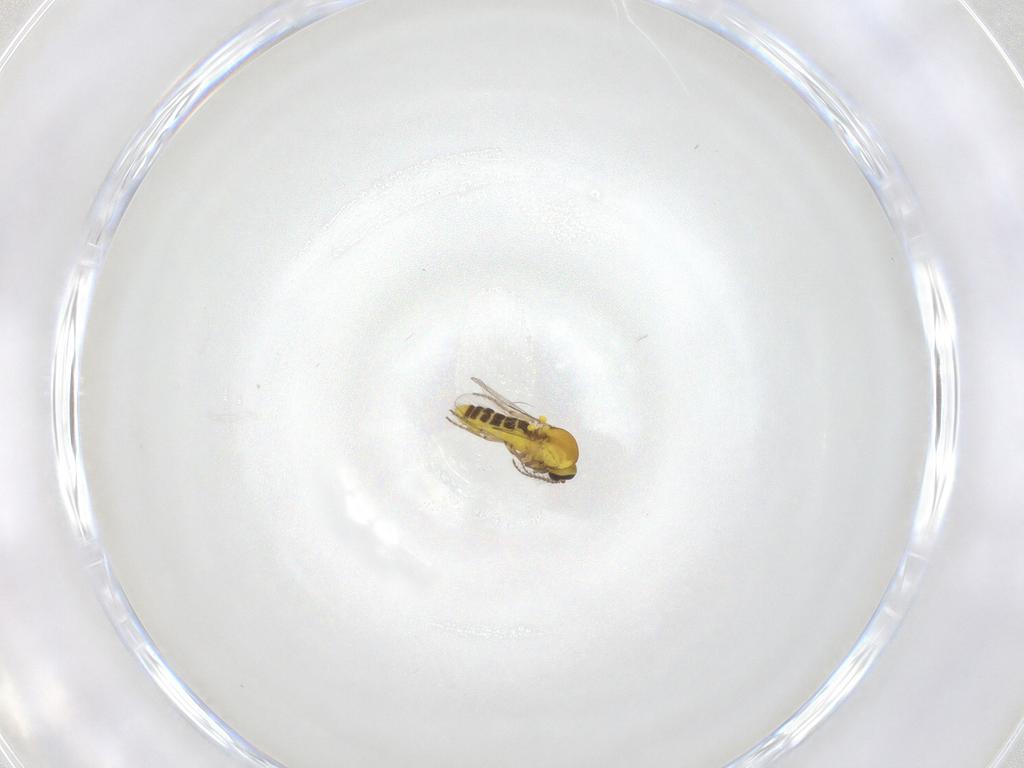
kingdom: Animalia
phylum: Arthropoda
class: Insecta
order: Diptera
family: Ceratopogonidae
